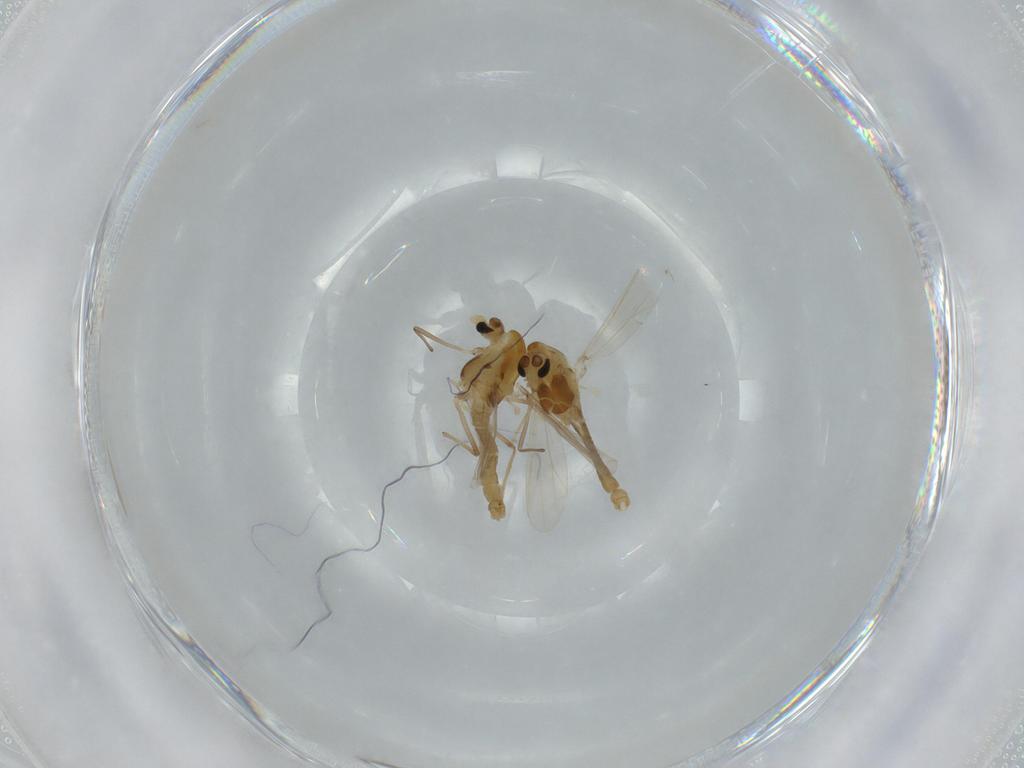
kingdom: Animalia
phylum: Arthropoda
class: Insecta
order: Diptera
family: Chironomidae
